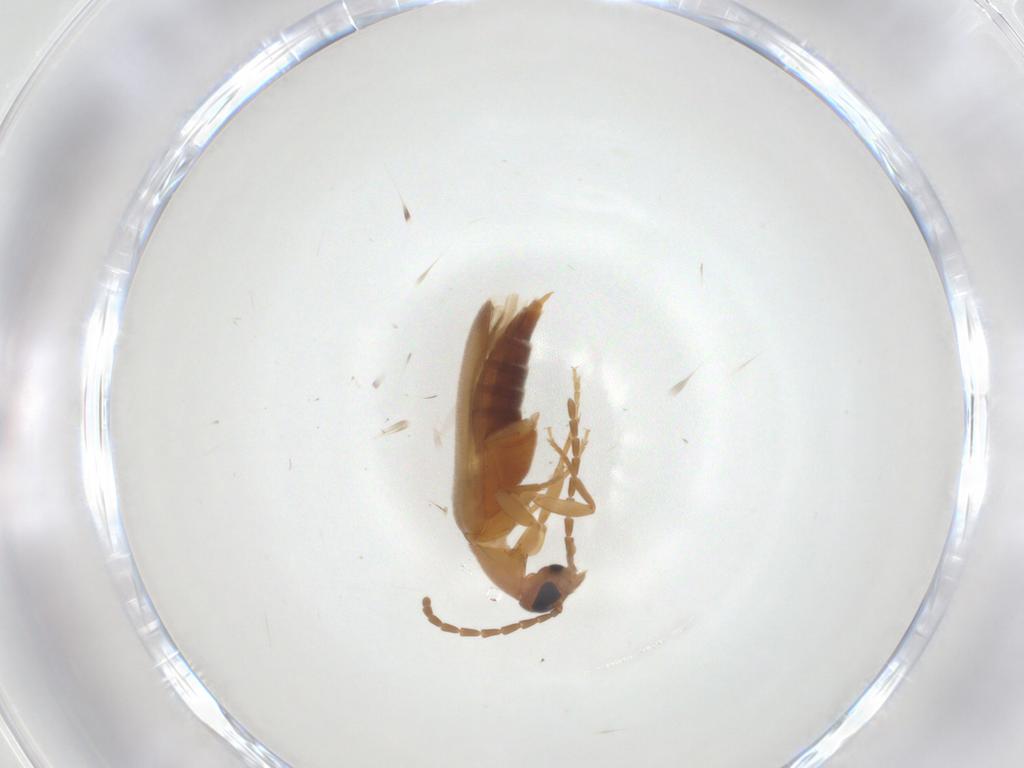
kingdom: Animalia
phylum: Arthropoda
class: Insecta
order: Coleoptera
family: Scraptiidae
